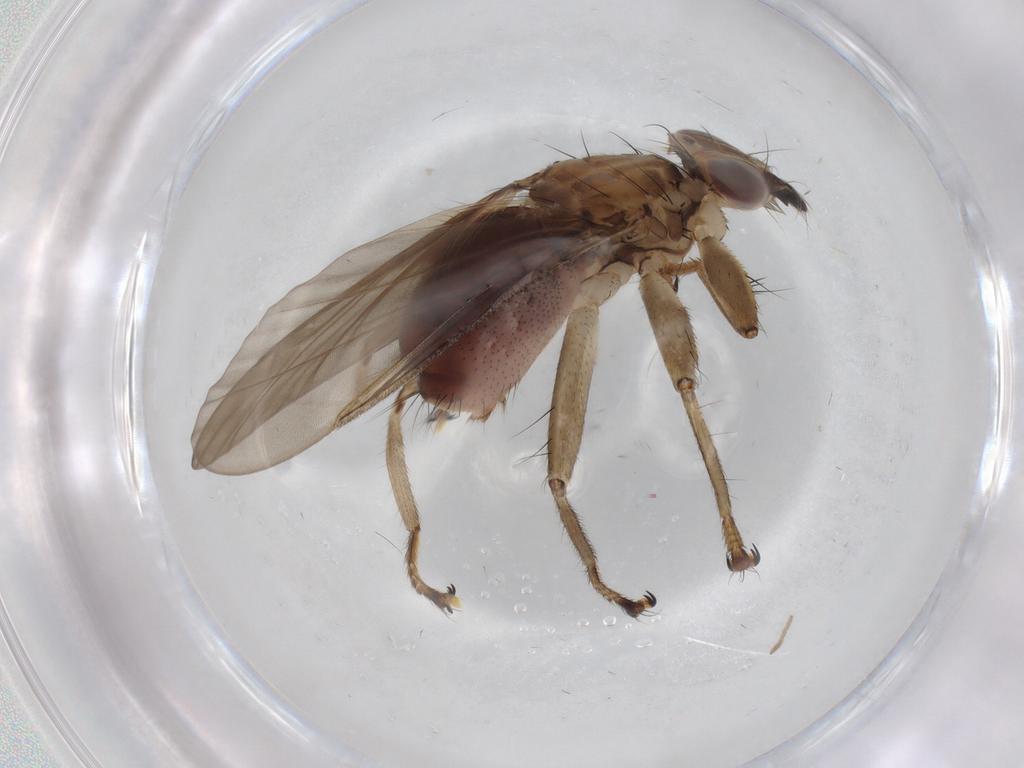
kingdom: Animalia
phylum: Arthropoda
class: Insecta
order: Diptera
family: Hippoboscidae
